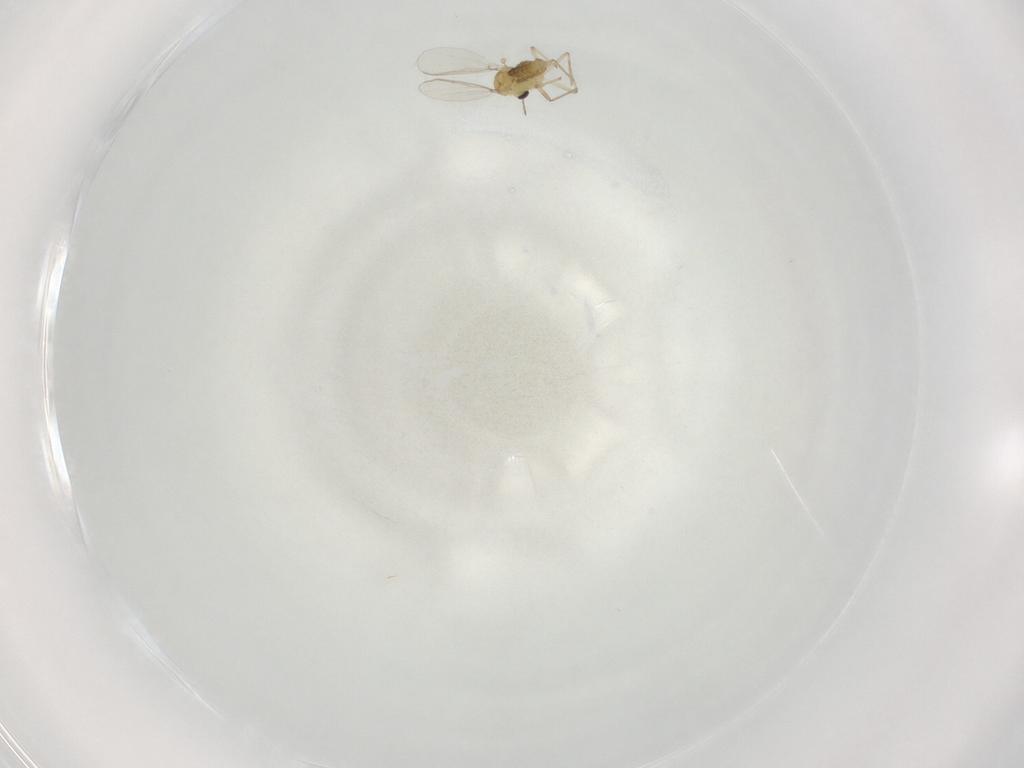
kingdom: Animalia
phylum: Arthropoda
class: Insecta
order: Diptera
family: Chironomidae
